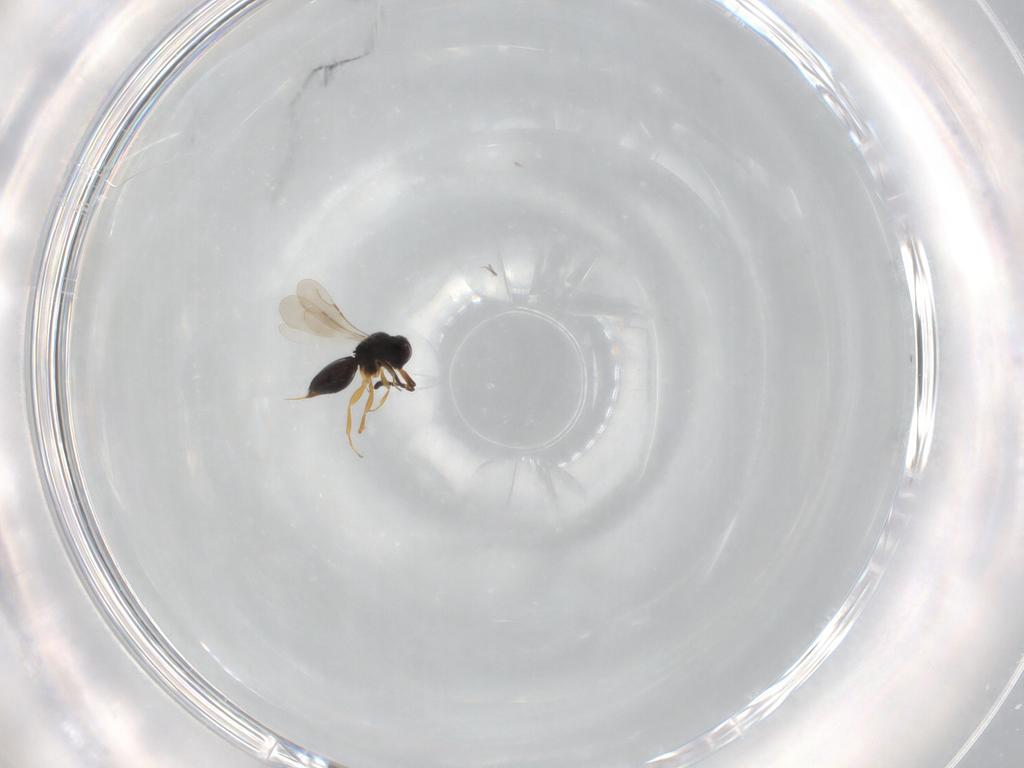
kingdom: Animalia
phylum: Arthropoda
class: Insecta
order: Hymenoptera
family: Ceraphronidae
